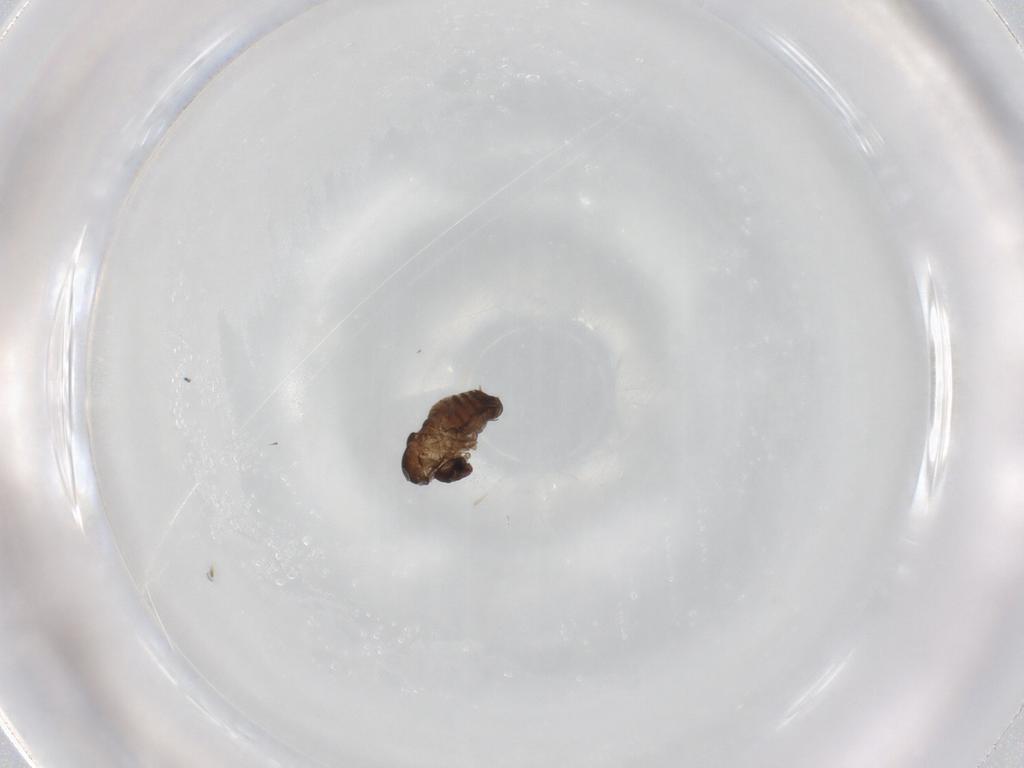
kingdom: Animalia
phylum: Arthropoda
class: Insecta
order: Diptera
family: Psychodidae
